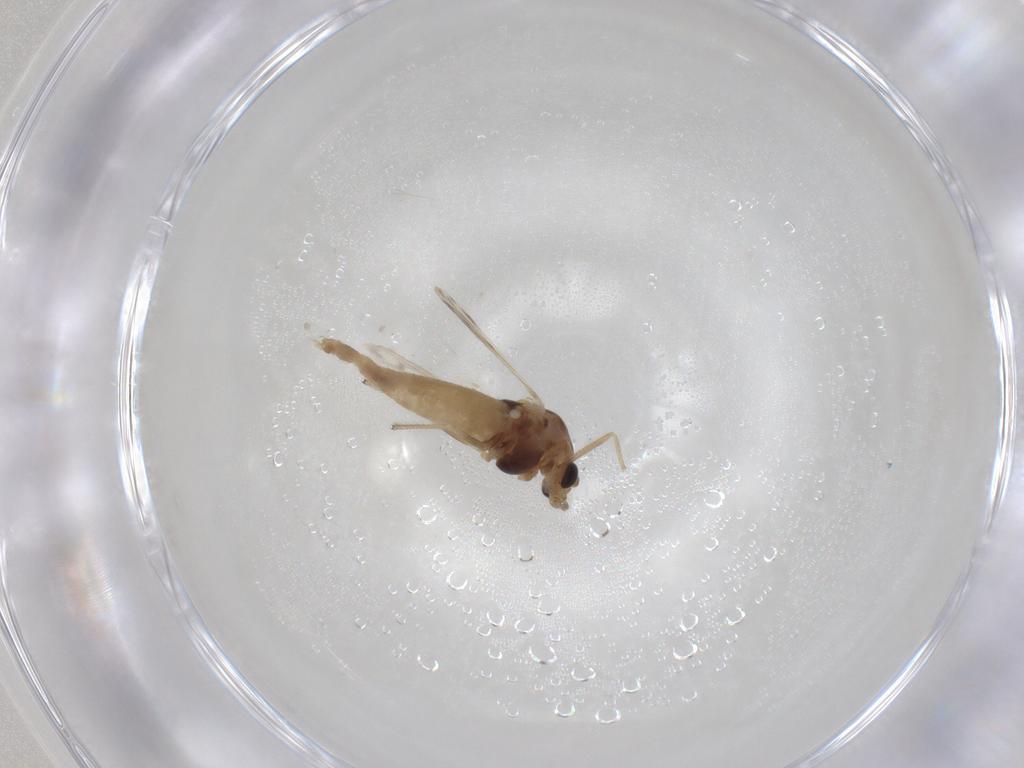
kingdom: Animalia
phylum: Arthropoda
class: Insecta
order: Diptera
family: Chironomidae
